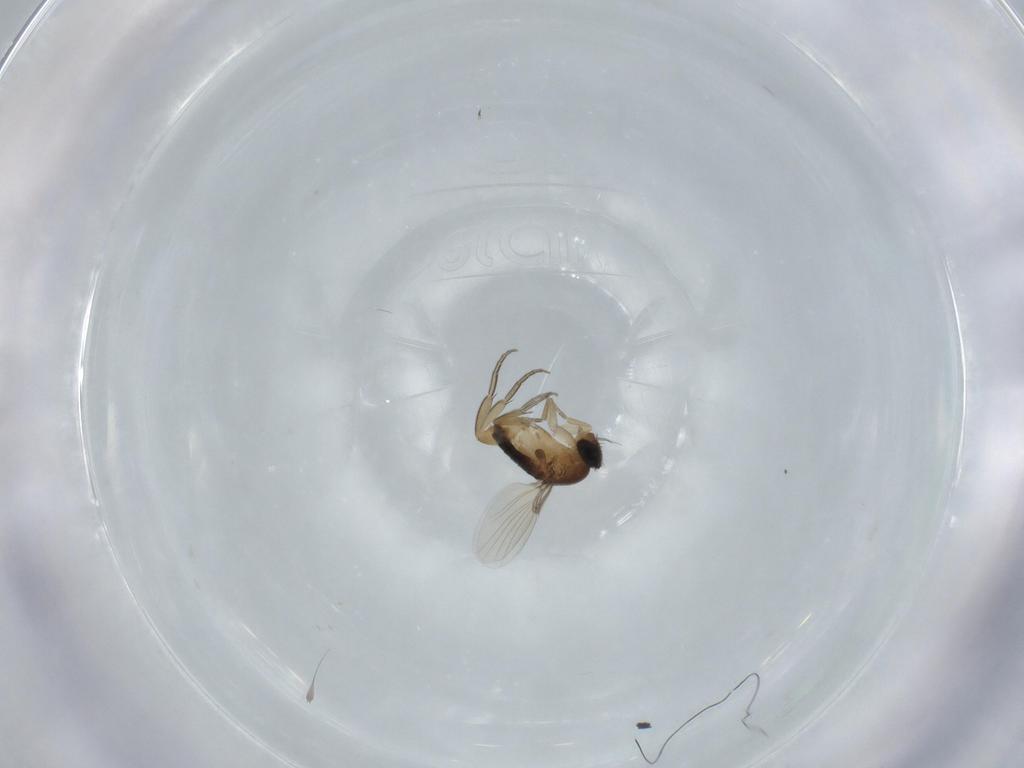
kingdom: Animalia
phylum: Arthropoda
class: Insecta
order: Diptera
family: Phoridae
